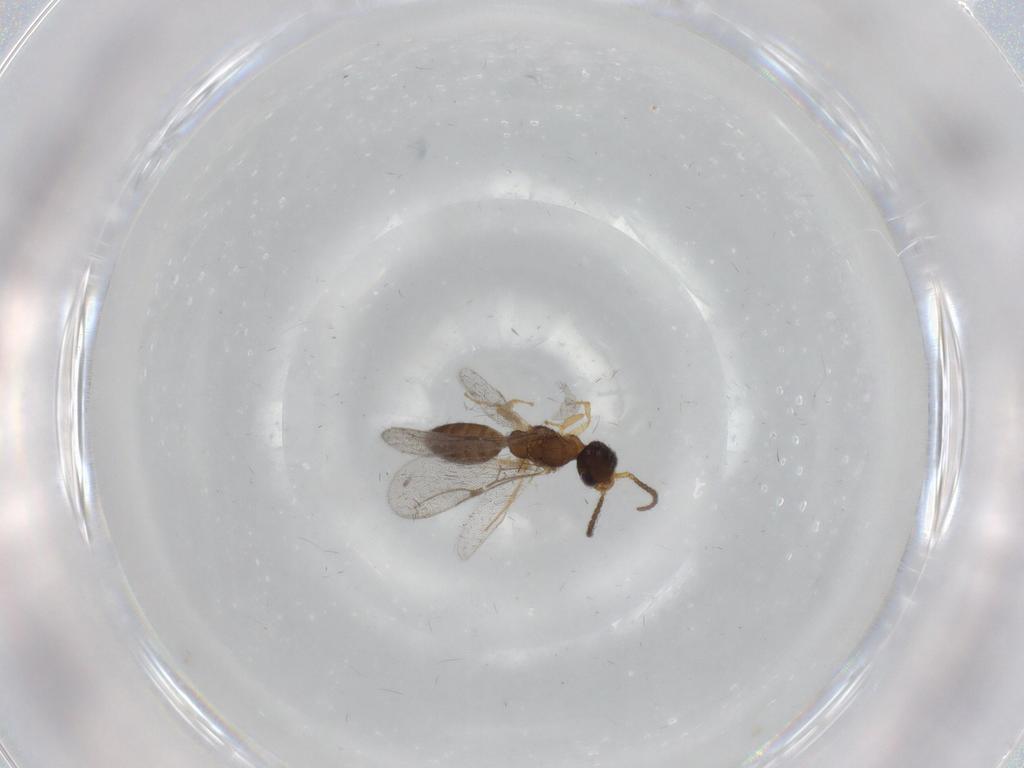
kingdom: Animalia
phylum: Arthropoda
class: Insecta
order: Hymenoptera
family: Bethylidae
